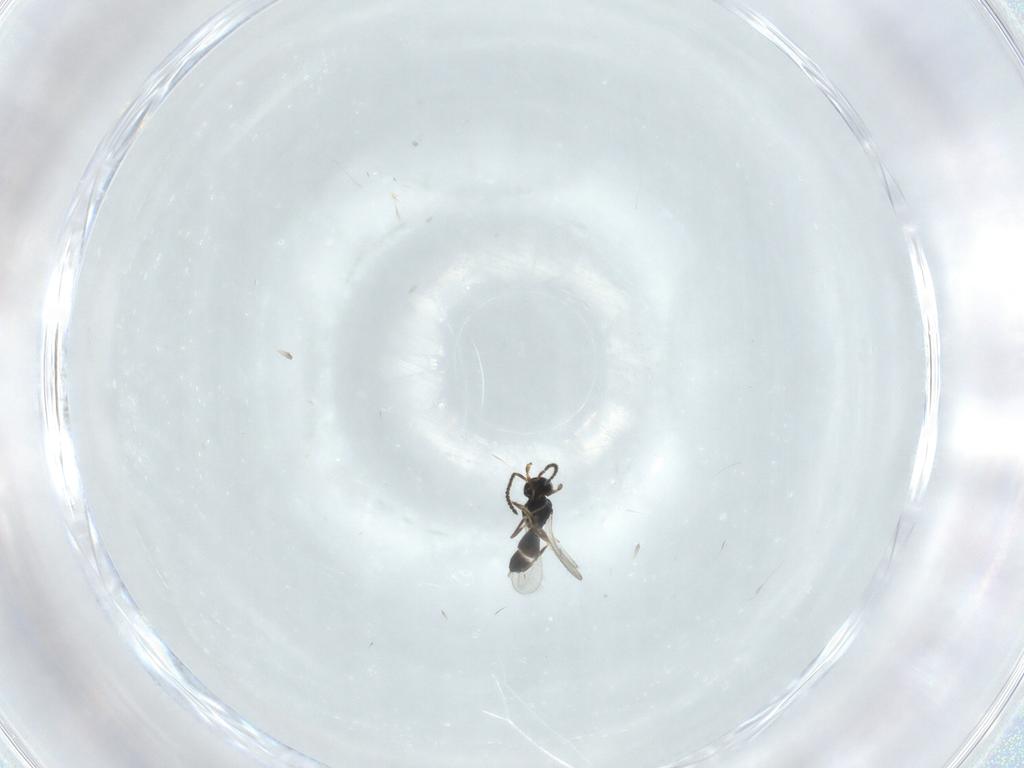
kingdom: Animalia
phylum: Arthropoda
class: Insecta
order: Hymenoptera
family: Scelionidae
